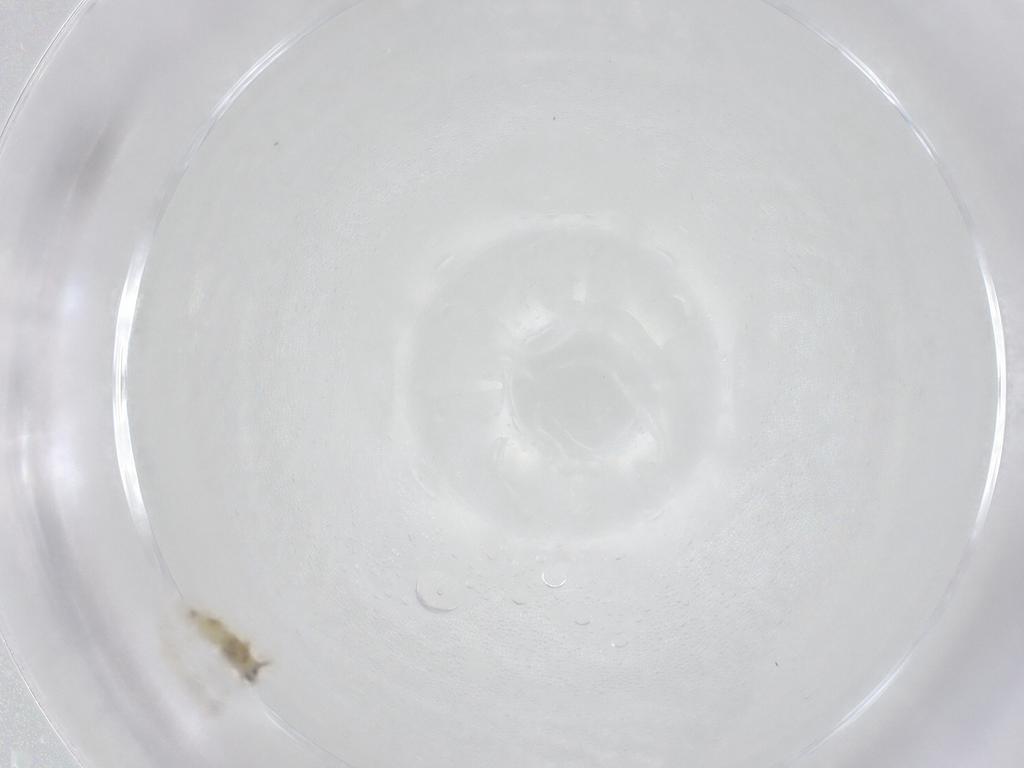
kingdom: Animalia
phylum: Arthropoda
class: Insecta
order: Hemiptera
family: Aleyrodidae
